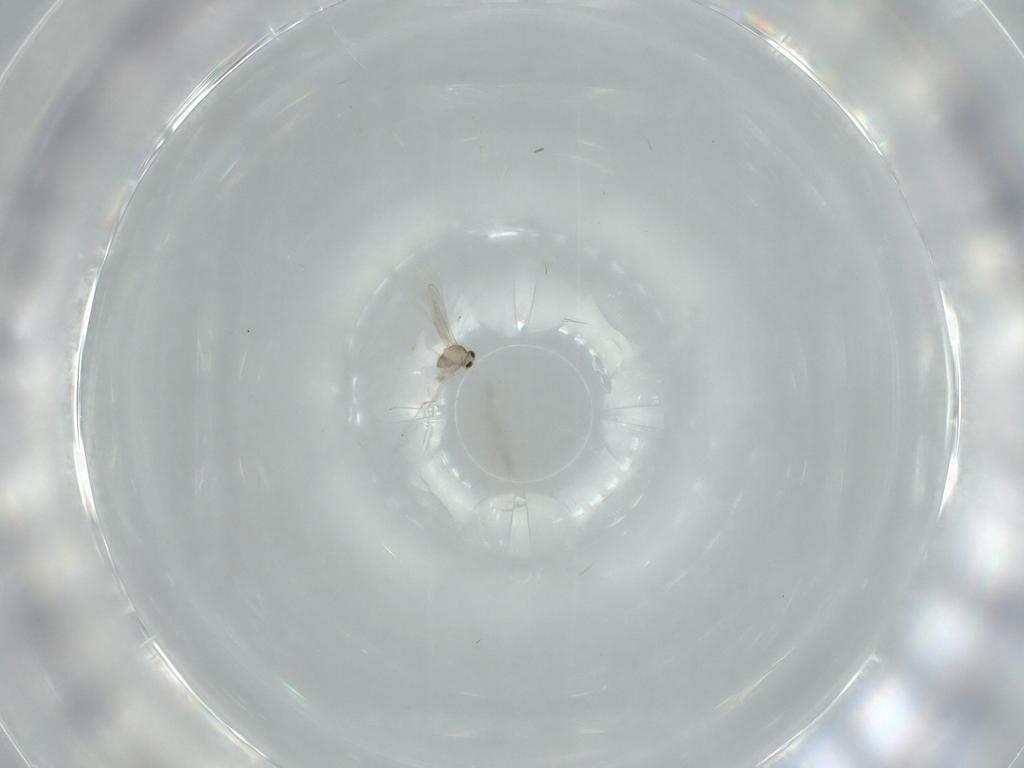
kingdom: Animalia
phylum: Arthropoda
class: Insecta
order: Diptera
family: Cecidomyiidae
